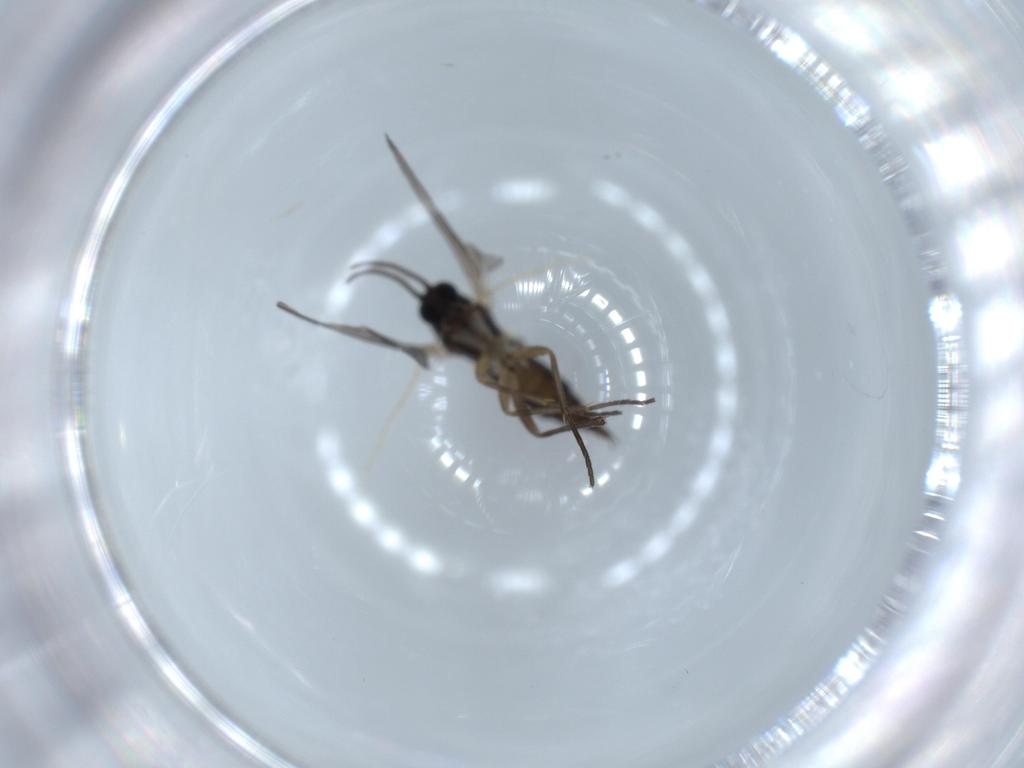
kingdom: Animalia
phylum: Arthropoda
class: Insecta
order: Diptera
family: Sciaridae
